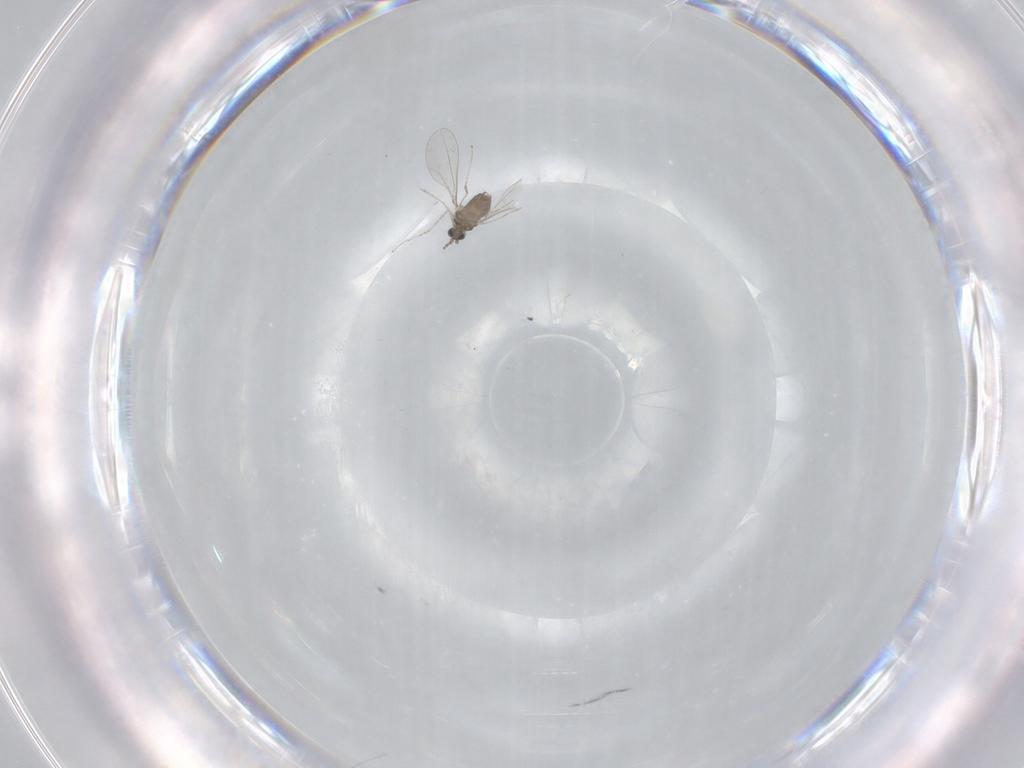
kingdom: Animalia
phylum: Arthropoda
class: Insecta
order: Diptera
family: Cecidomyiidae
